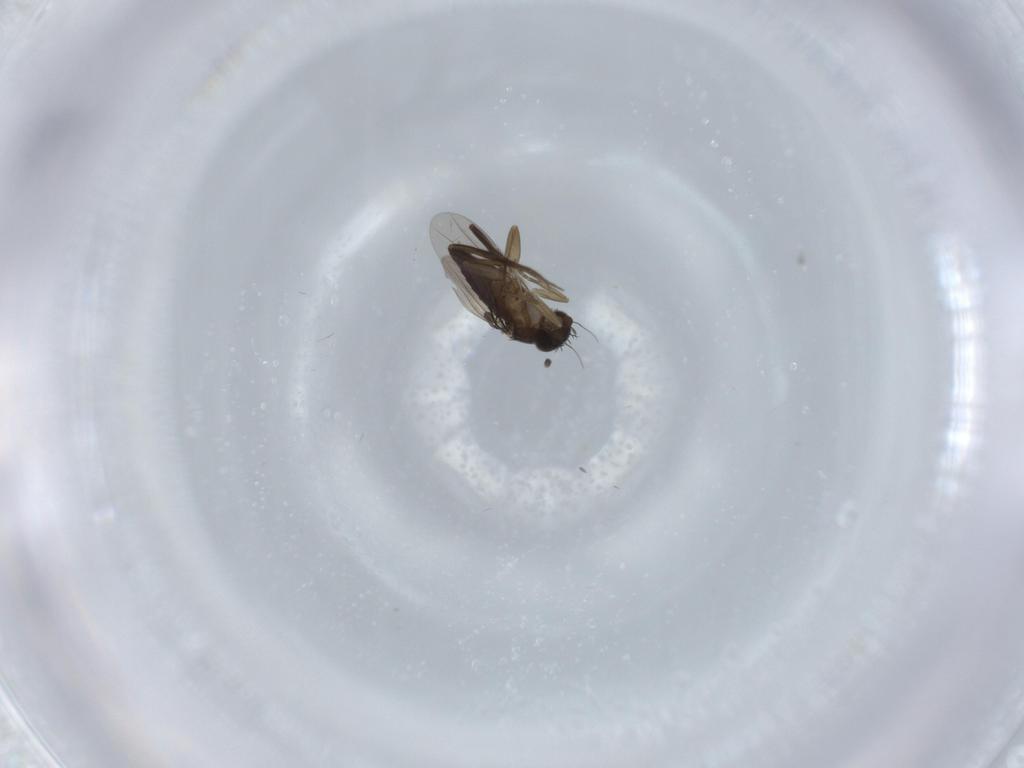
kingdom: Animalia
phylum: Arthropoda
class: Insecta
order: Diptera
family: Phoridae
